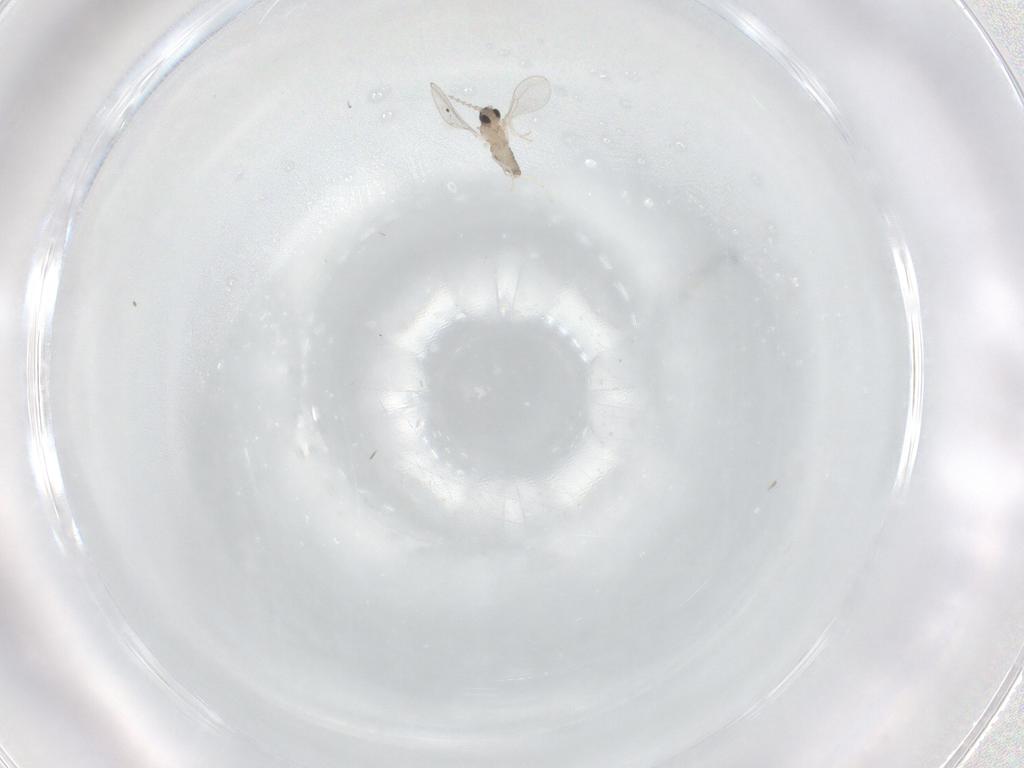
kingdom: Animalia
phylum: Arthropoda
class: Insecta
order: Diptera
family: Cecidomyiidae
